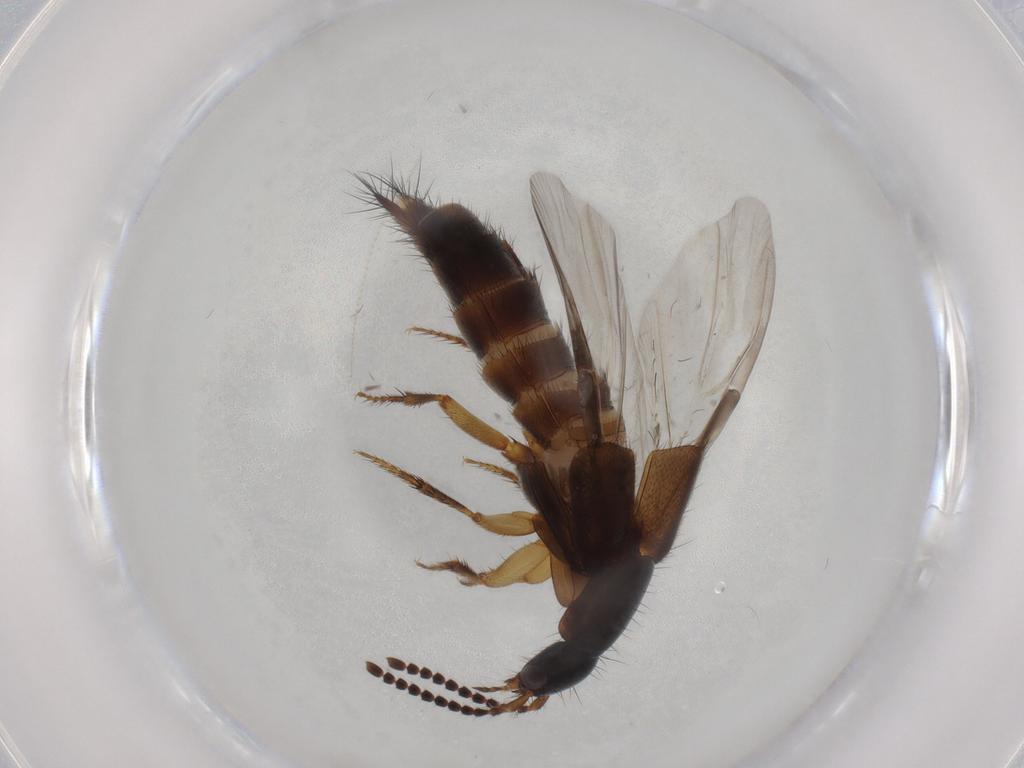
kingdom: Animalia
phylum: Arthropoda
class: Insecta
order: Coleoptera
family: Staphylinidae
